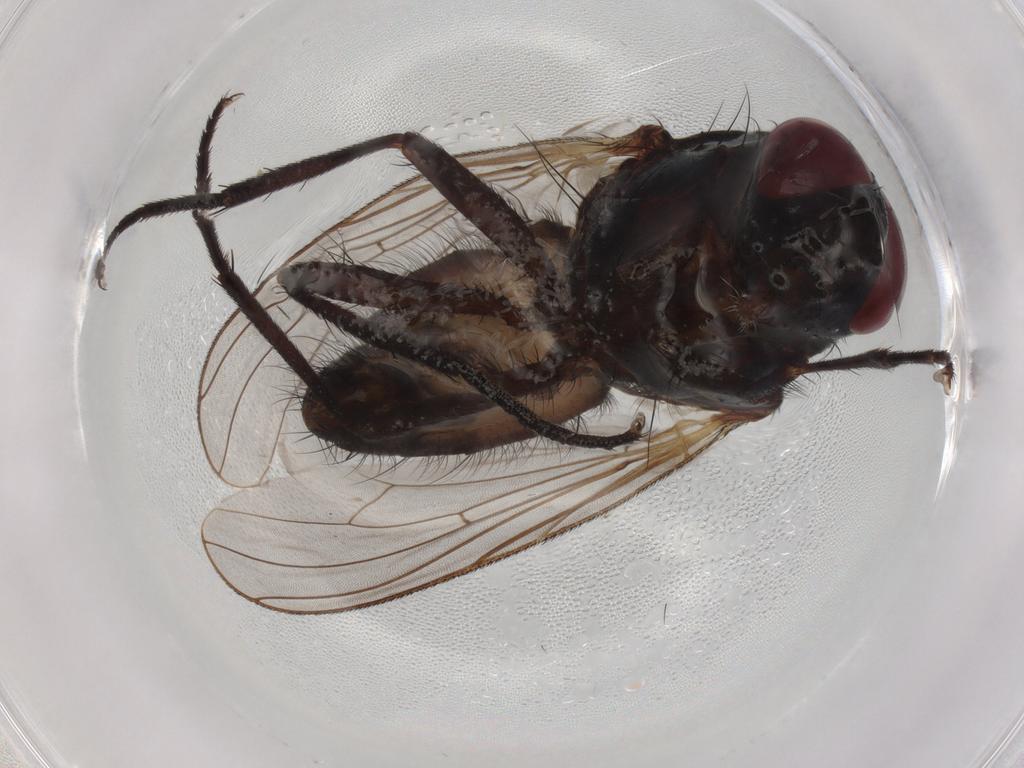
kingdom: Animalia
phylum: Arthropoda
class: Insecta
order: Diptera
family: Anthomyiidae
